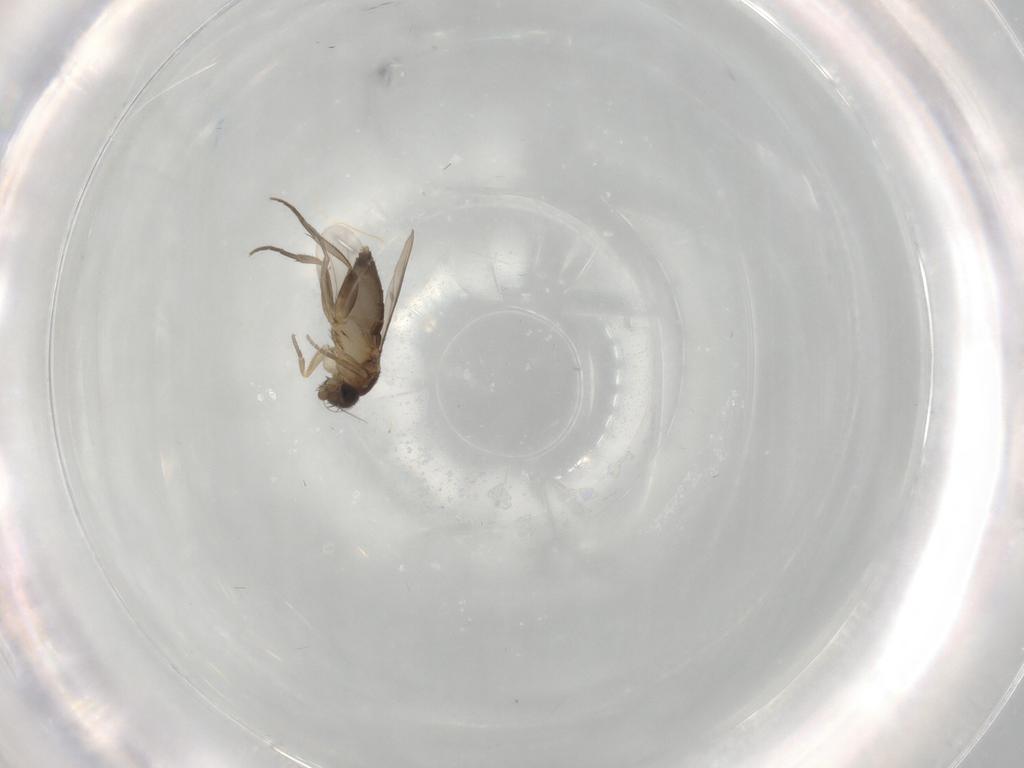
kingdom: Animalia
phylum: Arthropoda
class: Insecta
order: Diptera
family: Phoridae
